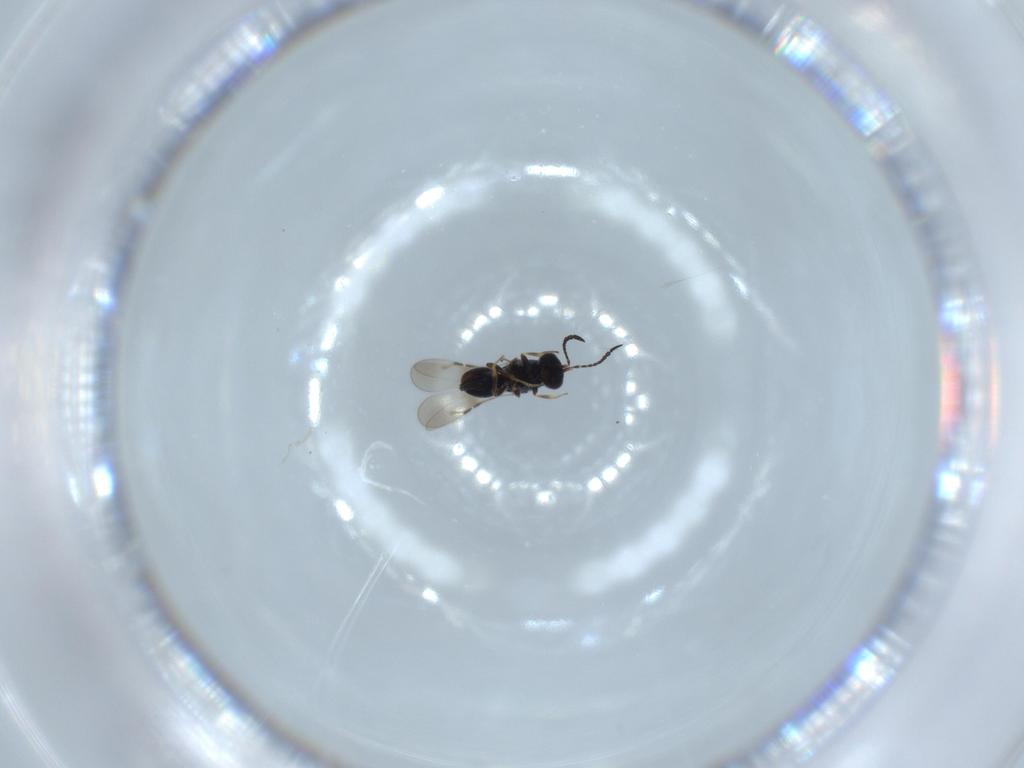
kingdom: Animalia
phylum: Arthropoda
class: Insecta
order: Hymenoptera
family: Ceraphronidae
